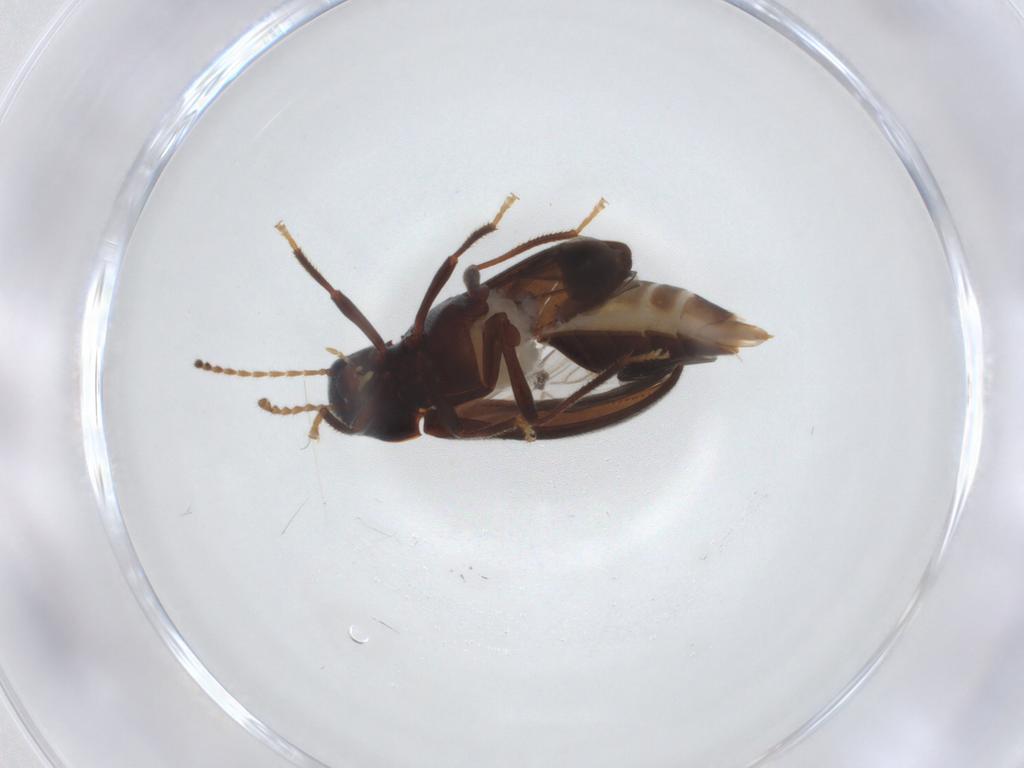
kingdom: Animalia
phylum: Arthropoda
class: Insecta
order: Coleoptera
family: Ptilodactylidae
